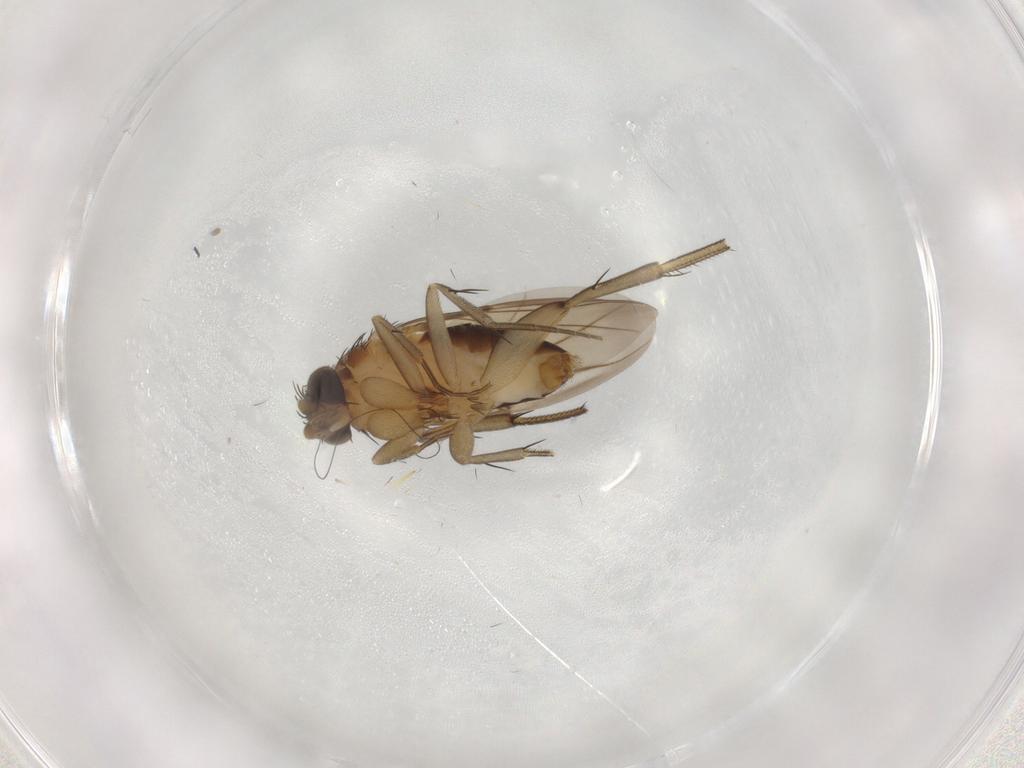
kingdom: Animalia
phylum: Arthropoda
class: Insecta
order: Diptera
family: Phoridae
